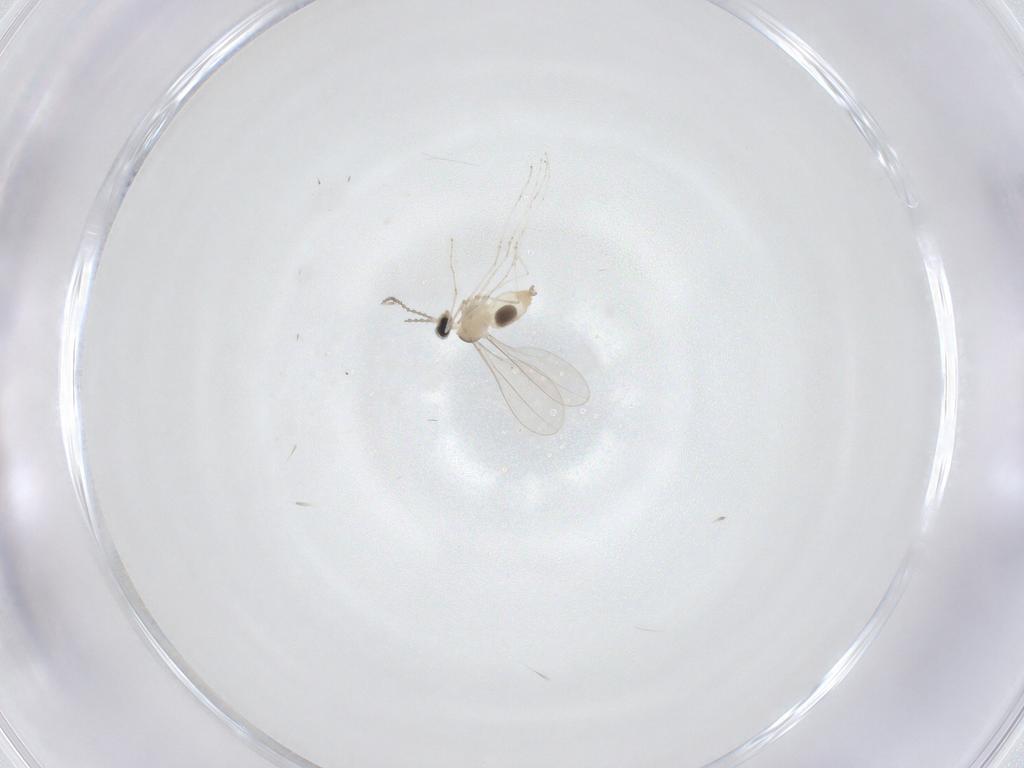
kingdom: Animalia
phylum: Arthropoda
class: Insecta
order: Diptera
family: Cecidomyiidae
